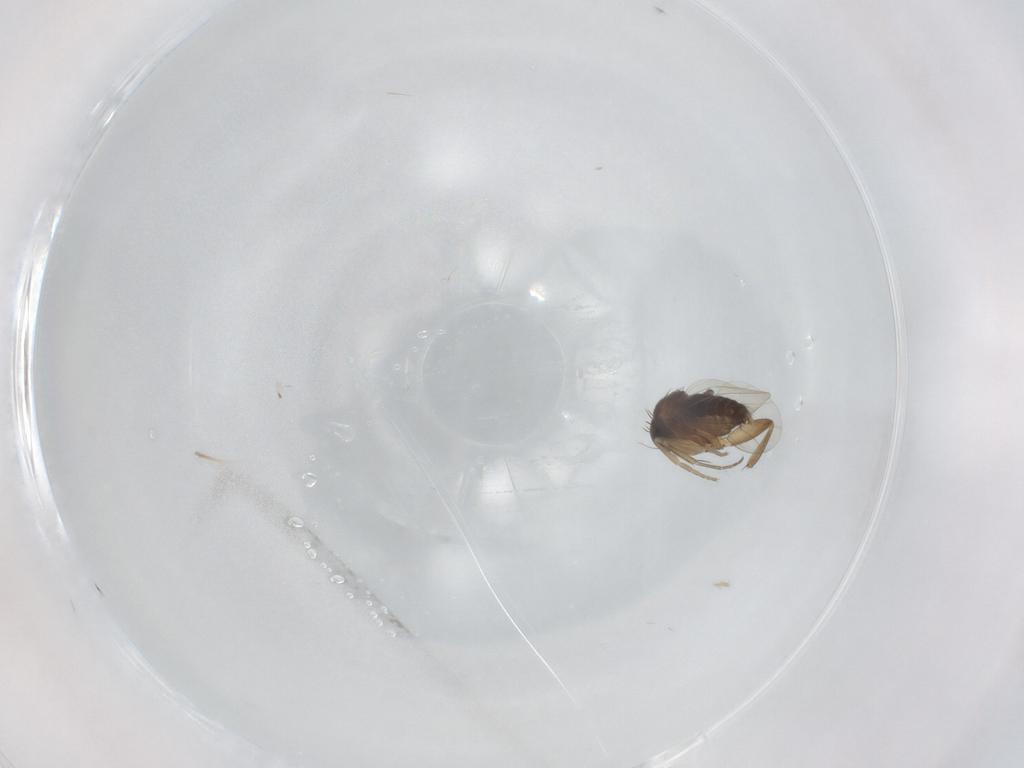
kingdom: Animalia
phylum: Arthropoda
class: Insecta
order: Diptera
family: Phoridae
